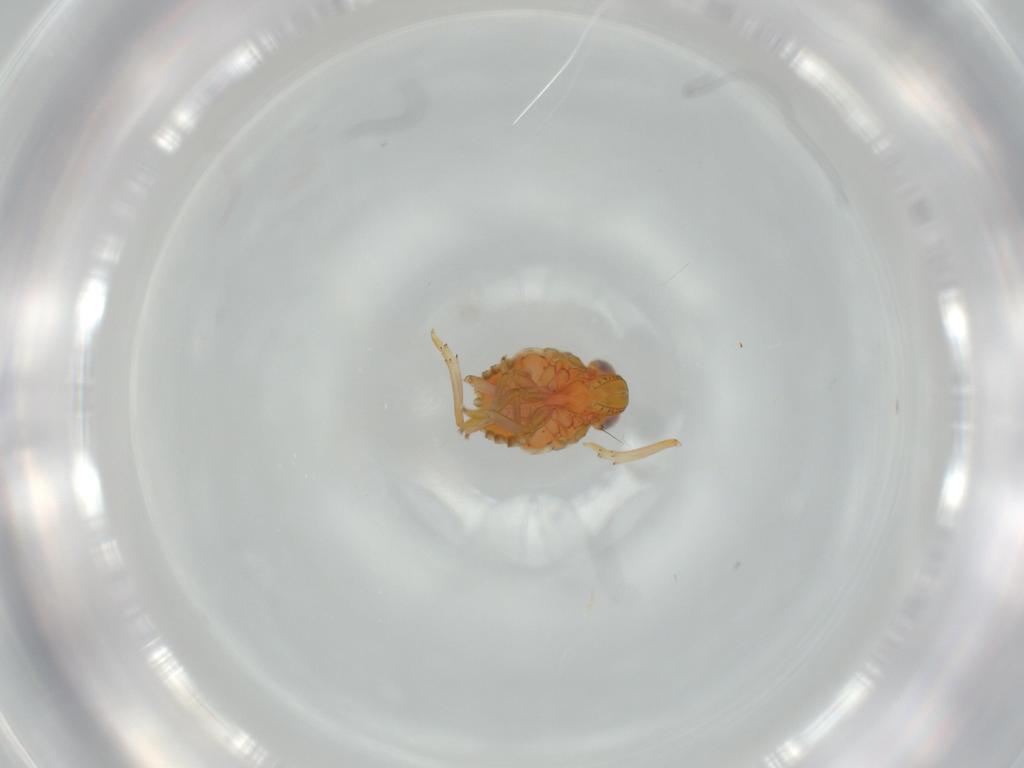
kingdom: Animalia
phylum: Arthropoda
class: Insecta
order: Hemiptera
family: Issidae
